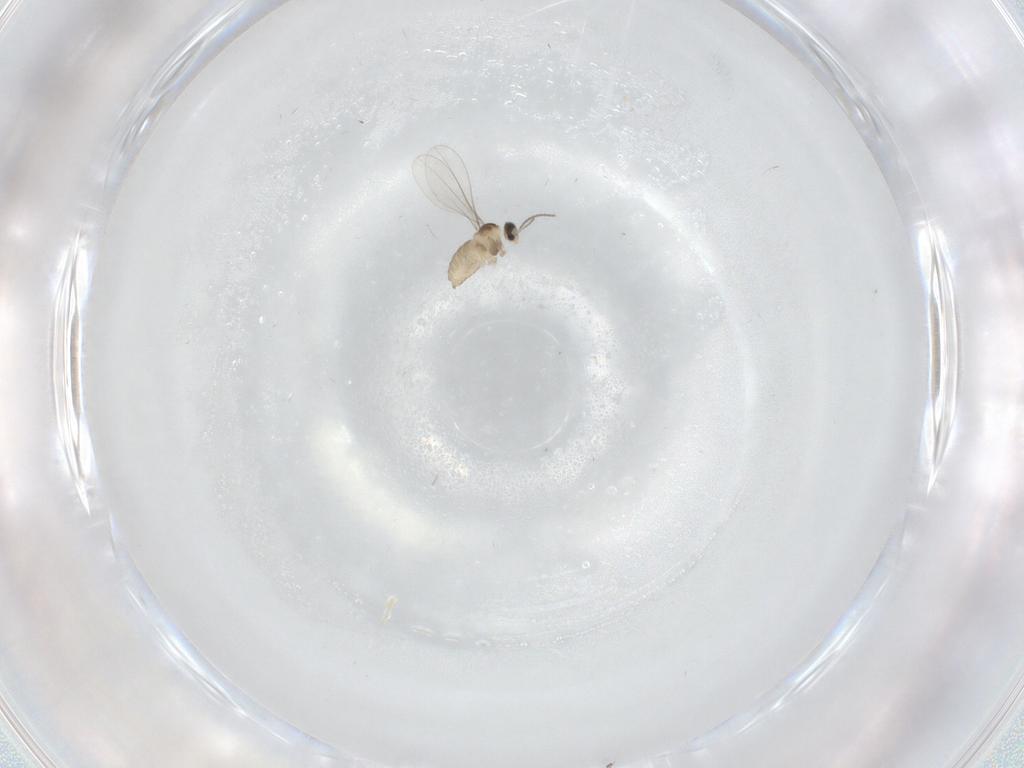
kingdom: Animalia
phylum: Arthropoda
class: Insecta
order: Diptera
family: Cecidomyiidae
